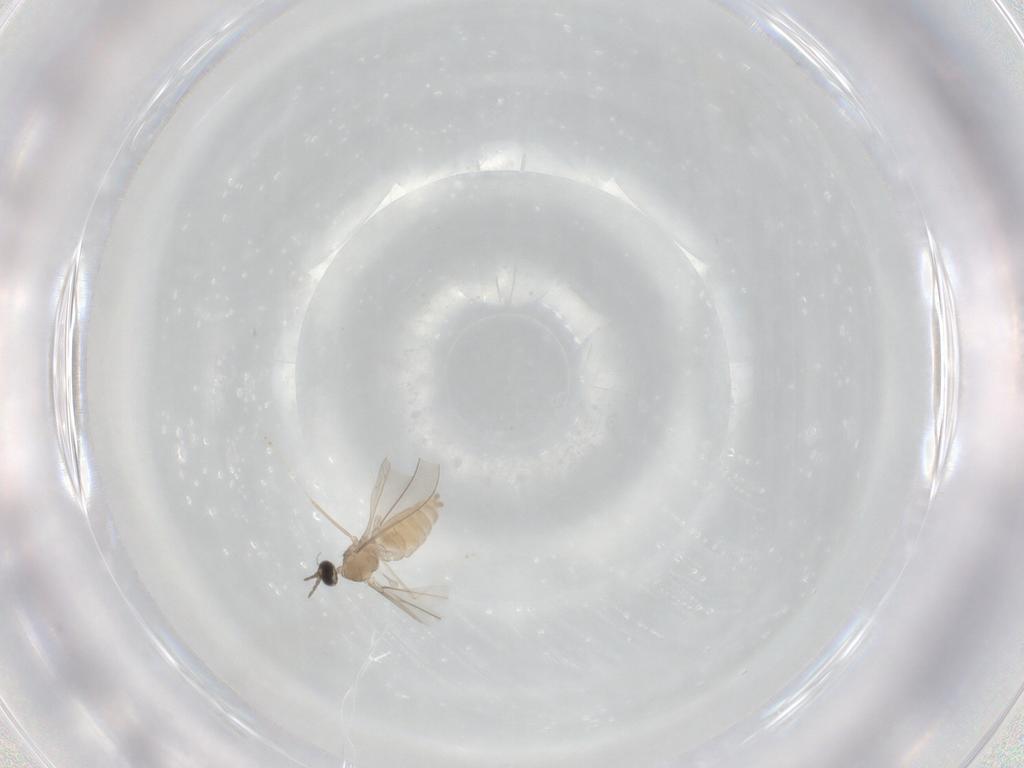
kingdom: Animalia
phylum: Arthropoda
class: Insecta
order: Diptera
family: Cecidomyiidae
